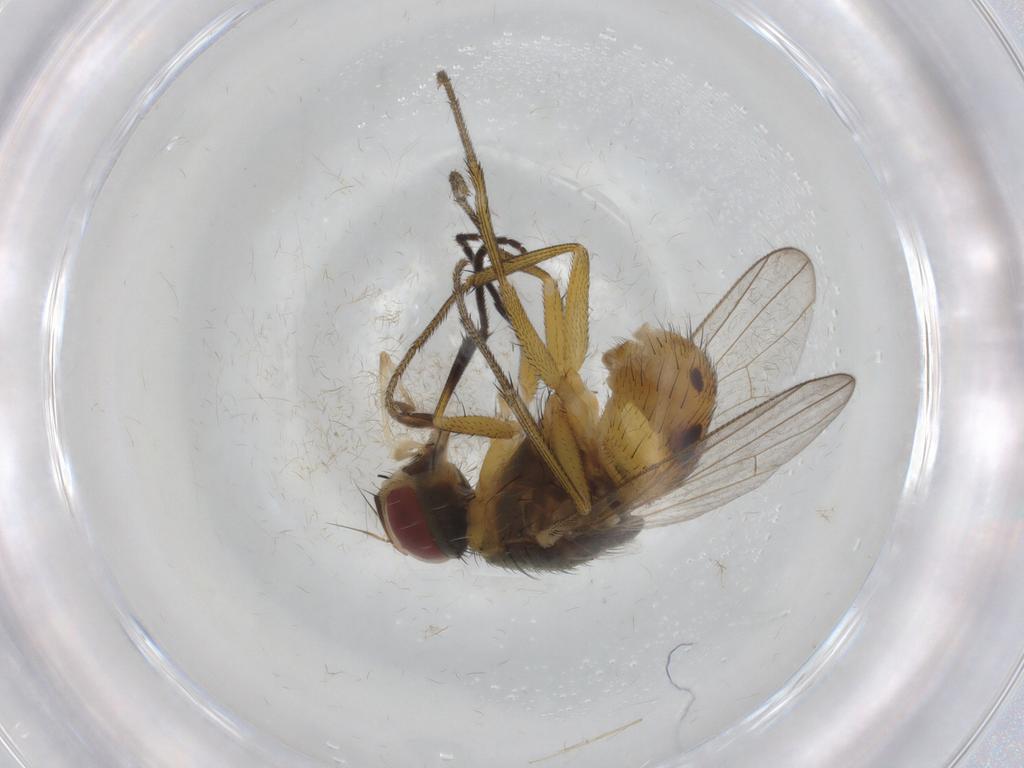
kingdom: Animalia
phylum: Arthropoda
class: Insecta
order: Diptera
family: Muscidae
